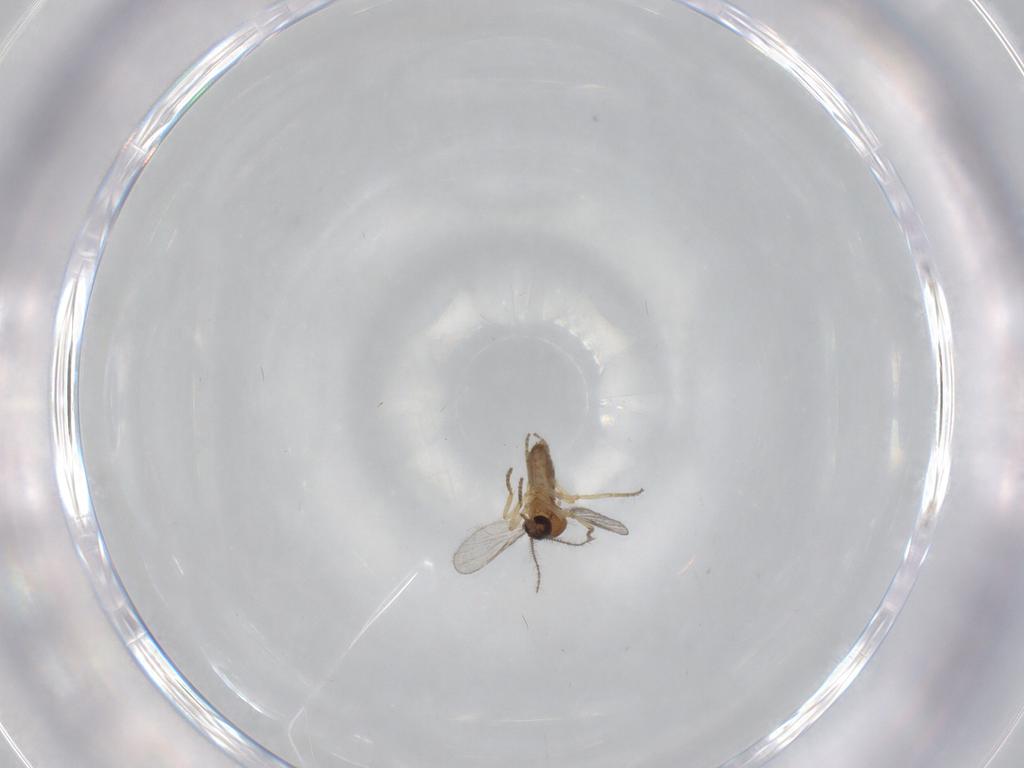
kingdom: Animalia
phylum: Arthropoda
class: Insecta
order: Diptera
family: Ceratopogonidae
